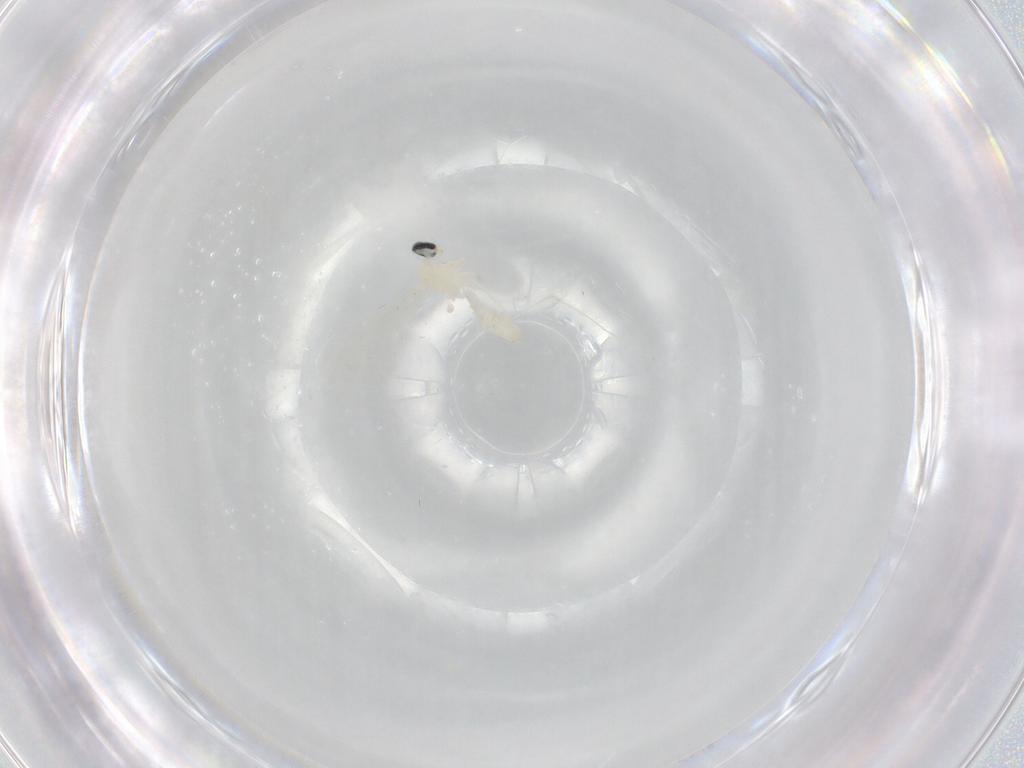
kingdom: Animalia
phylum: Arthropoda
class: Insecta
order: Diptera
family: Cecidomyiidae
